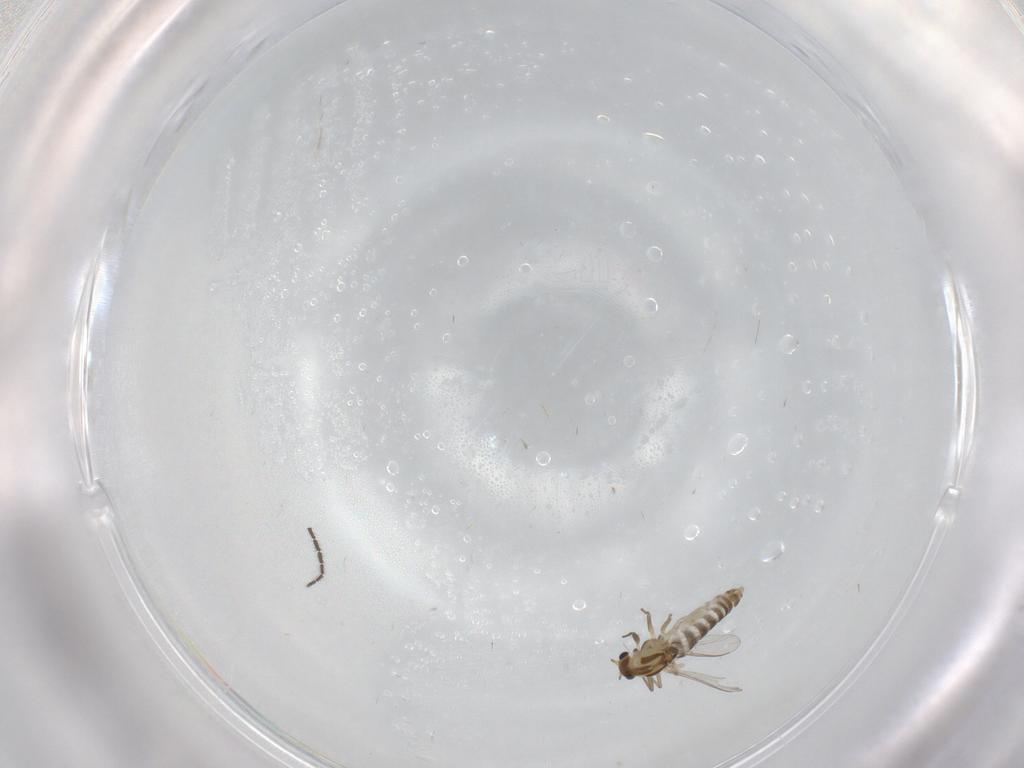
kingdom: Animalia
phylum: Arthropoda
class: Insecta
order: Diptera
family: Chironomidae
